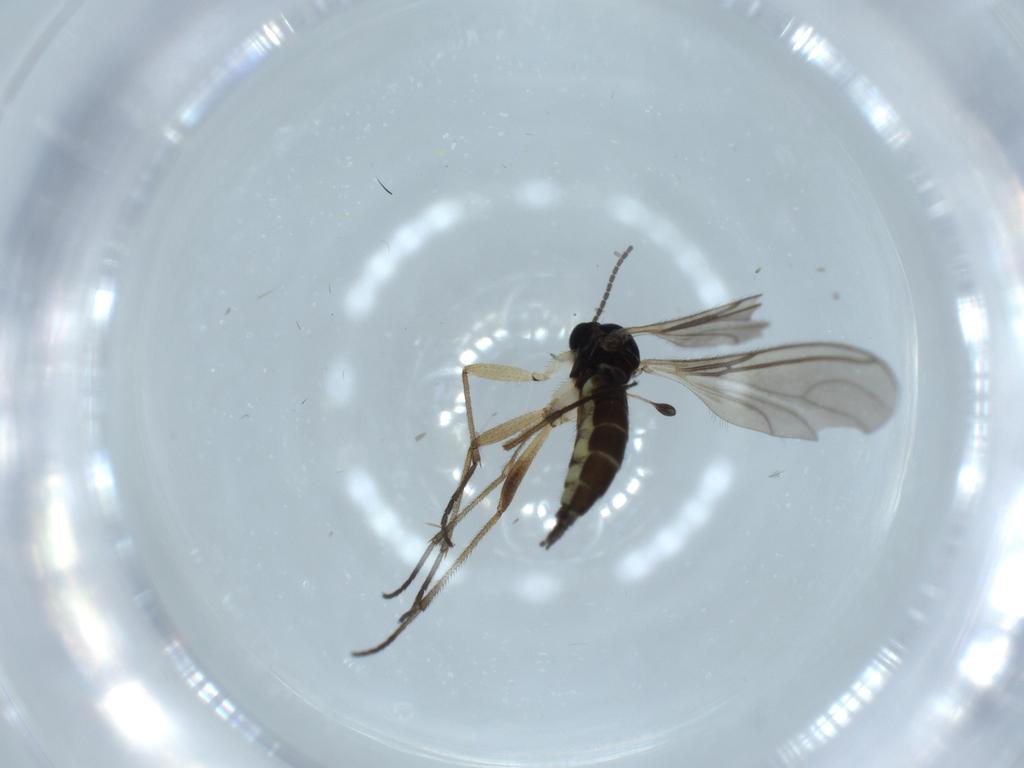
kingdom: Animalia
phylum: Arthropoda
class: Insecta
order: Diptera
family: Sciaridae
